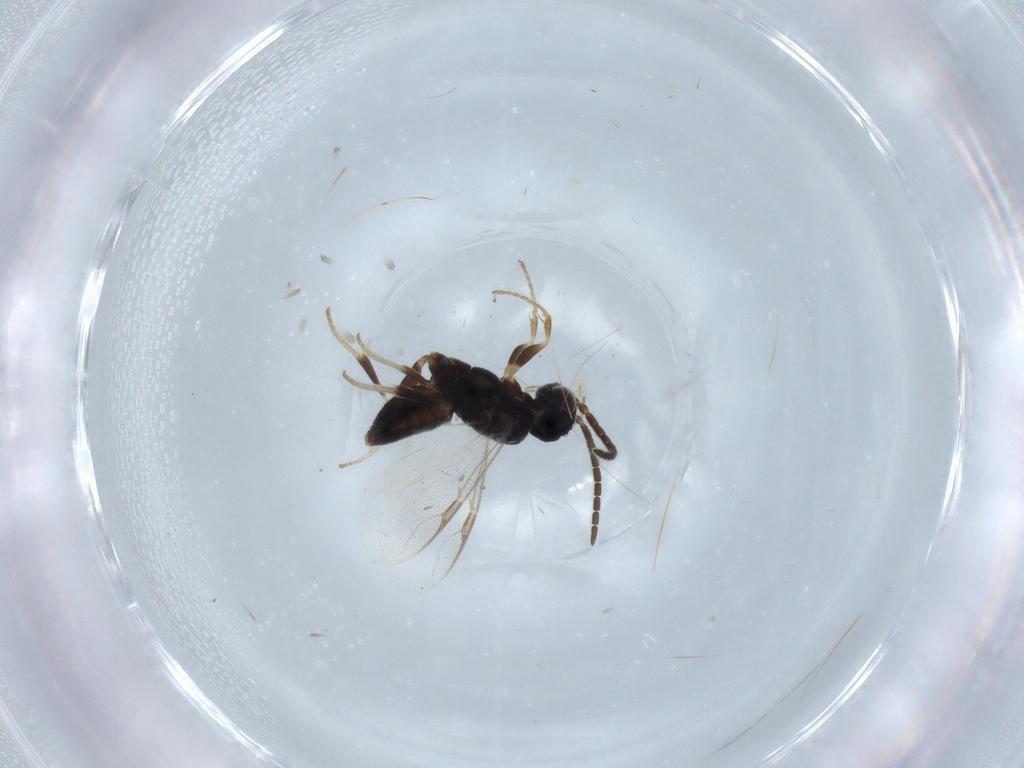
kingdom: Animalia
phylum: Arthropoda
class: Insecta
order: Hymenoptera
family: Dryinidae
